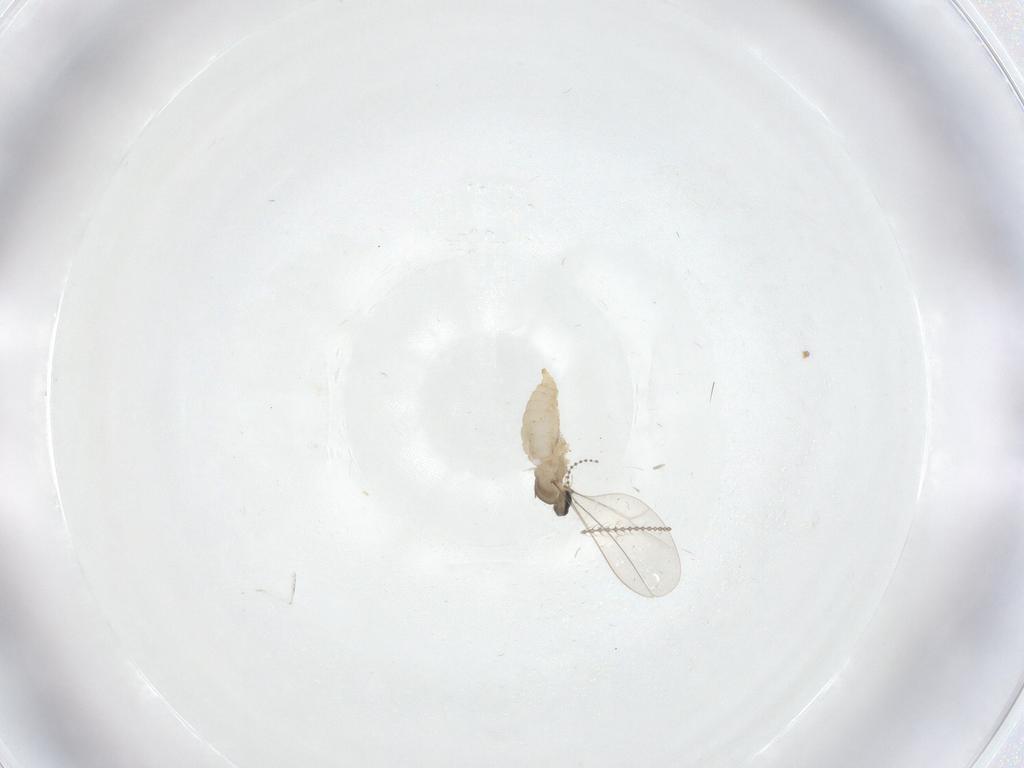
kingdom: Animalia
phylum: Arthropoda
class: Insecta
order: Diptera
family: Cecidomyiidae
